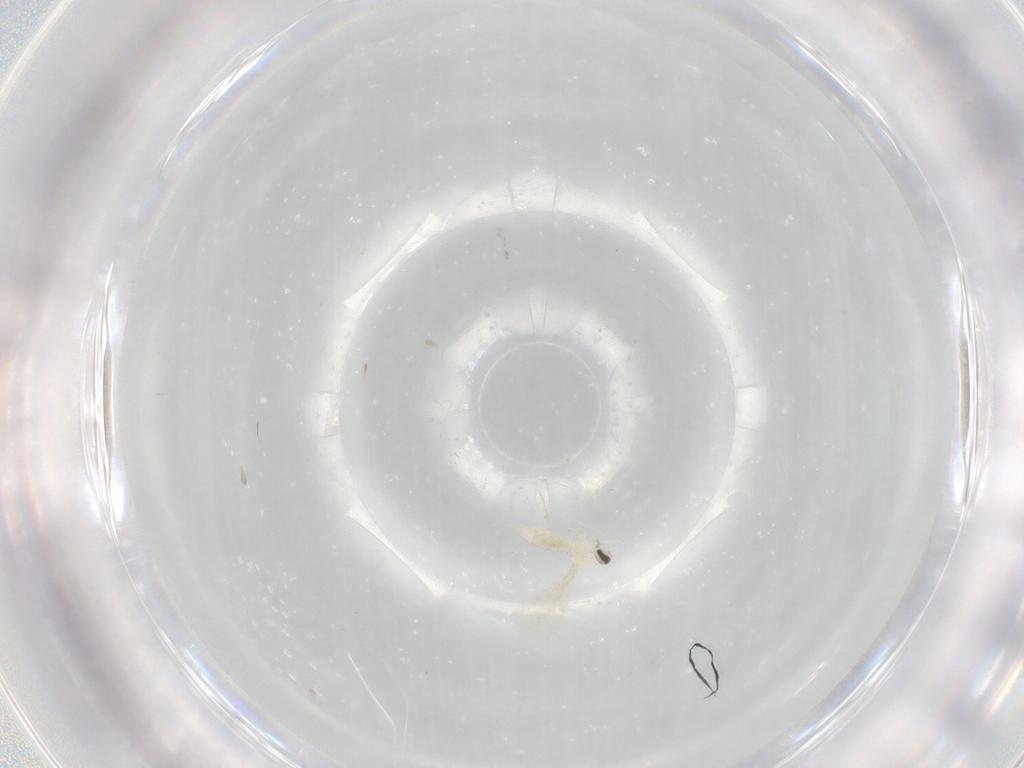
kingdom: Animalia
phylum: Arthropoda
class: Insecta
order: Diptera
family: Cecidomyiidae
